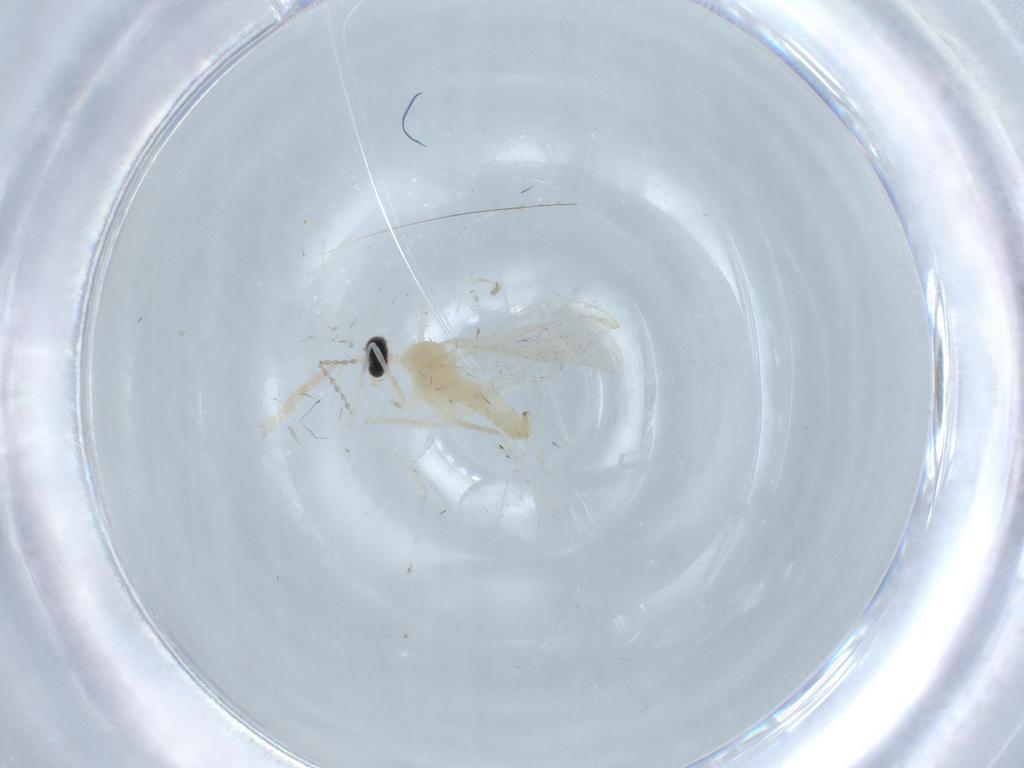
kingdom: Animalia
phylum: Arthropoda
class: Insecta
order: Diptera
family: Cecidomyiidae
